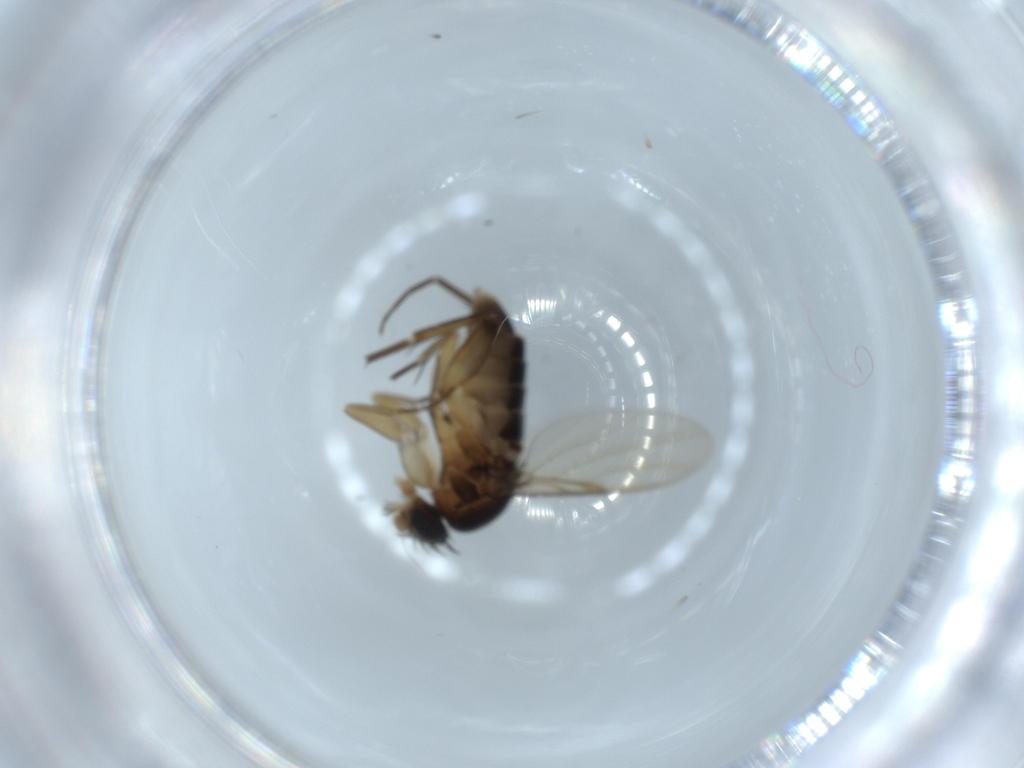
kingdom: Animalia
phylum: Arthropoda
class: Insecta
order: Diptera
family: Phoridae
